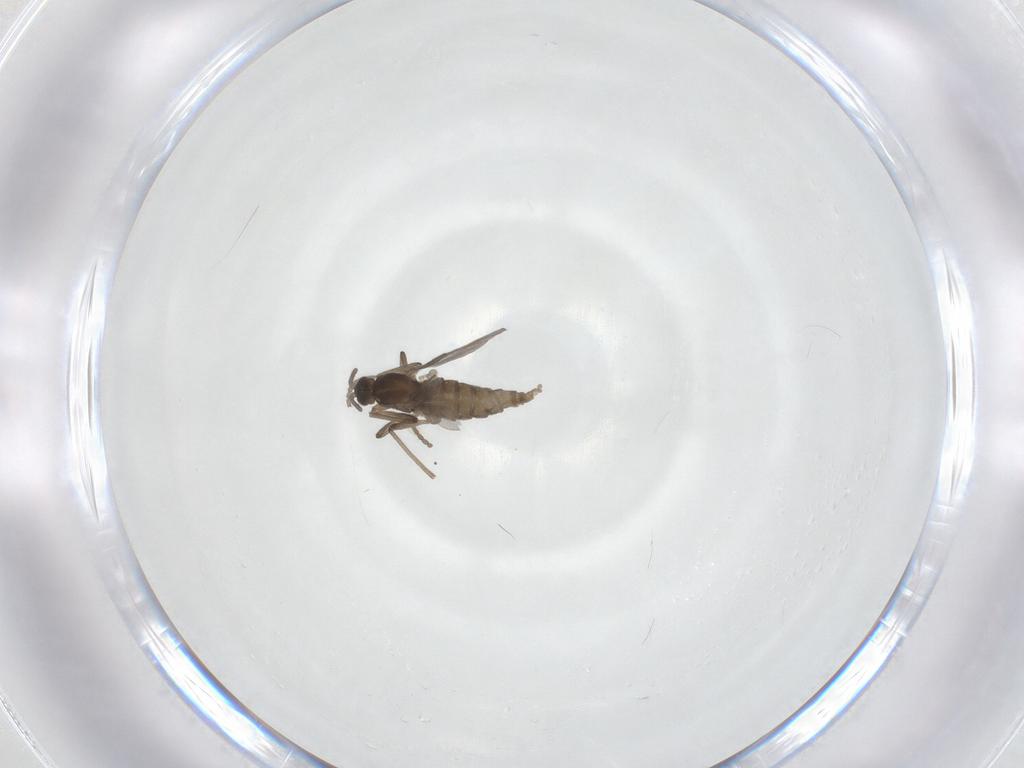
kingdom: Animalia
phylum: Arthropoda
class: Insecta
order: Diptera
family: Cecidomyiidae
